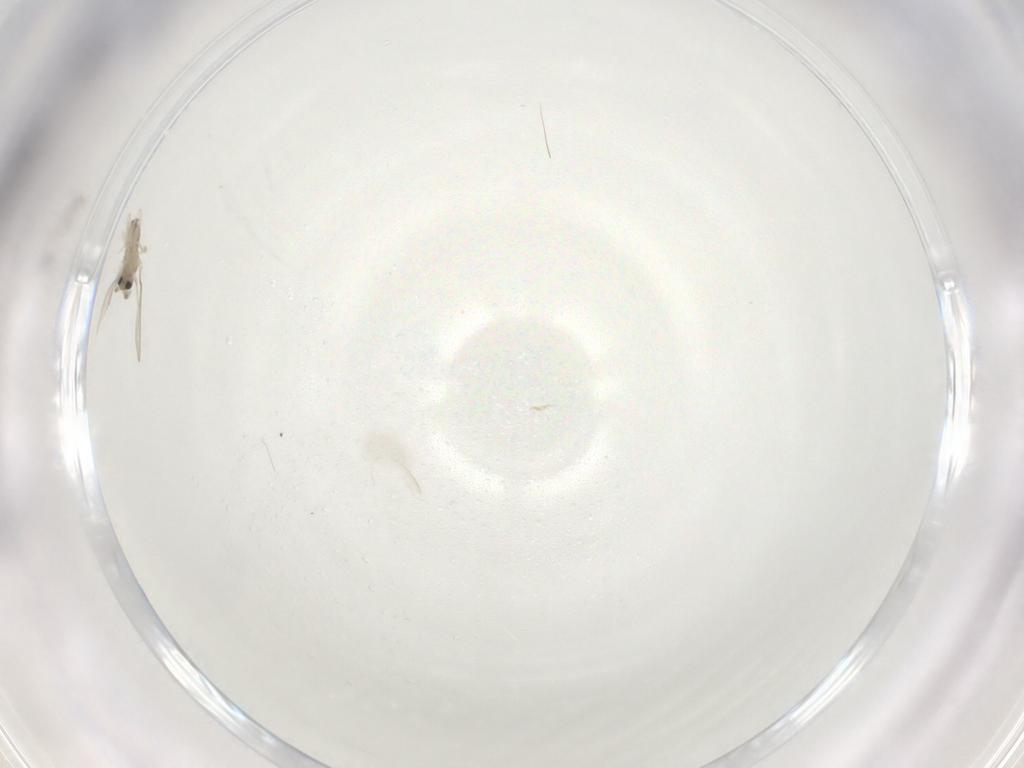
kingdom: Animalia
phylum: Arthropoda
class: Insecta
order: Diptera
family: Cecidomyiidae
